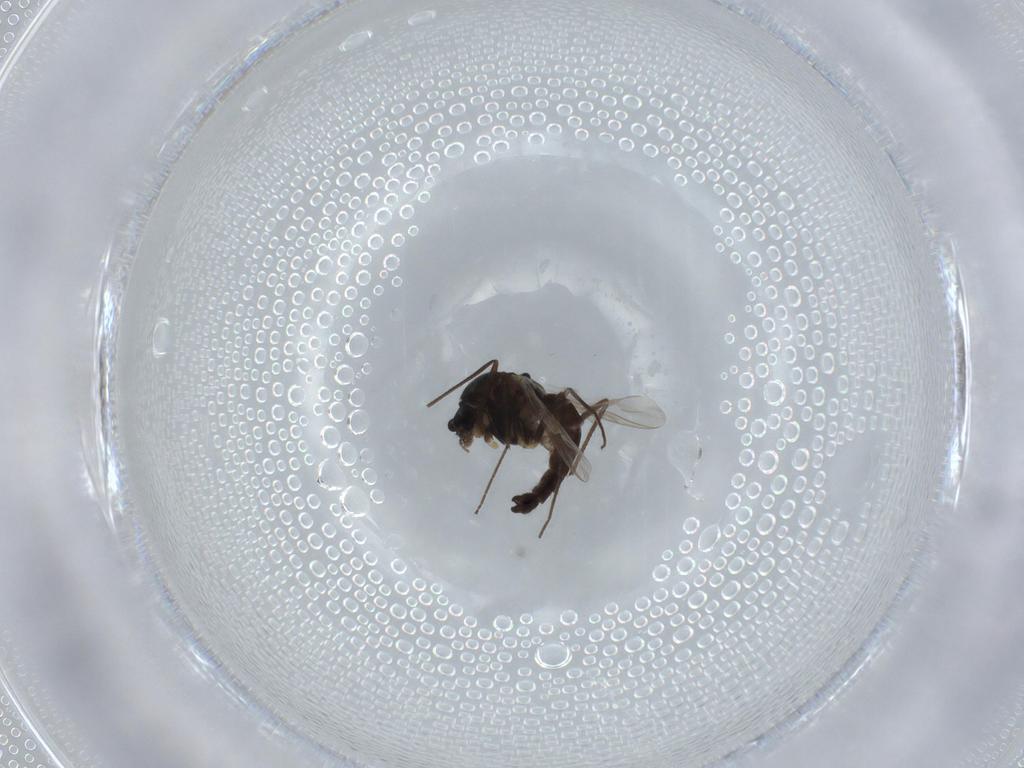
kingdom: Animalia
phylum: Arthropoda
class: Insecta
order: Diptera
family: Chironomidae
